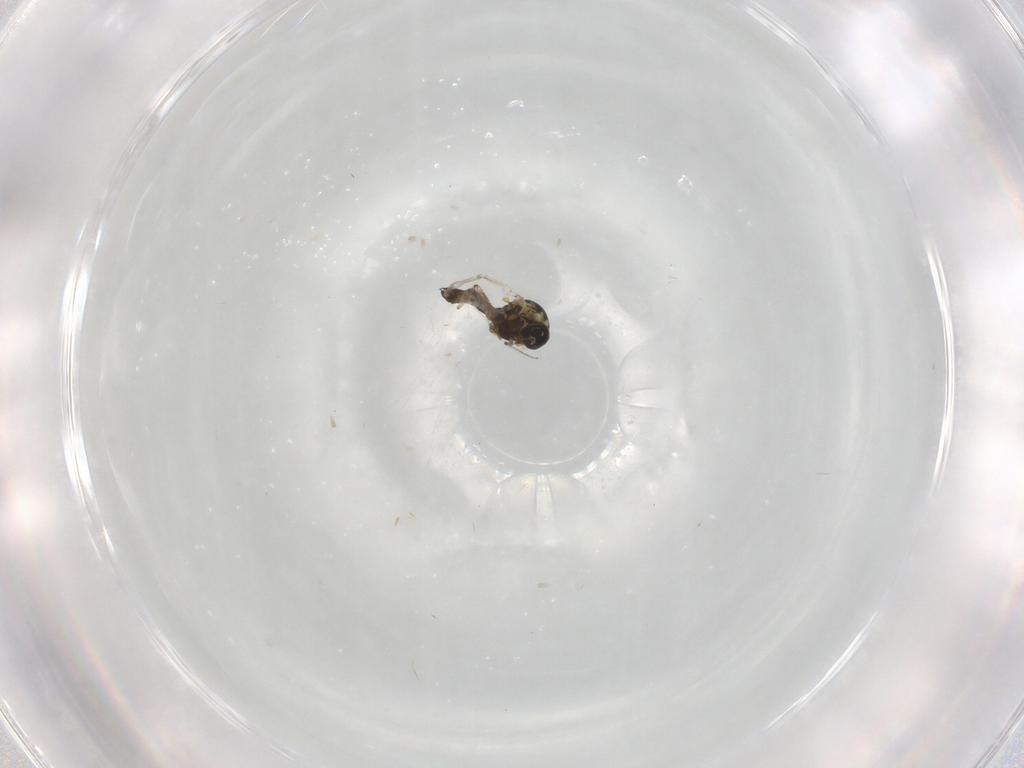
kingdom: Animalia
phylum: Arthropoda
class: Insecta
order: Diptera
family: Ceratopogonidae
